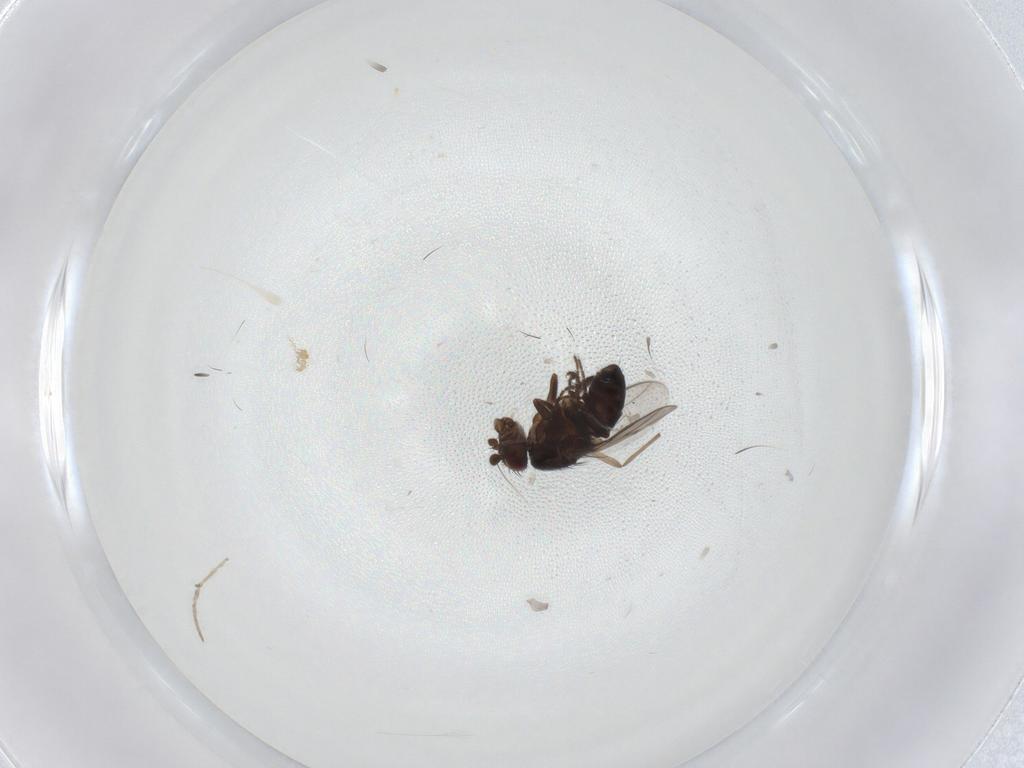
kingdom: Animalia
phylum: Arthropoda
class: Insecta
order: Diptera
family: Sphaeroceridae
